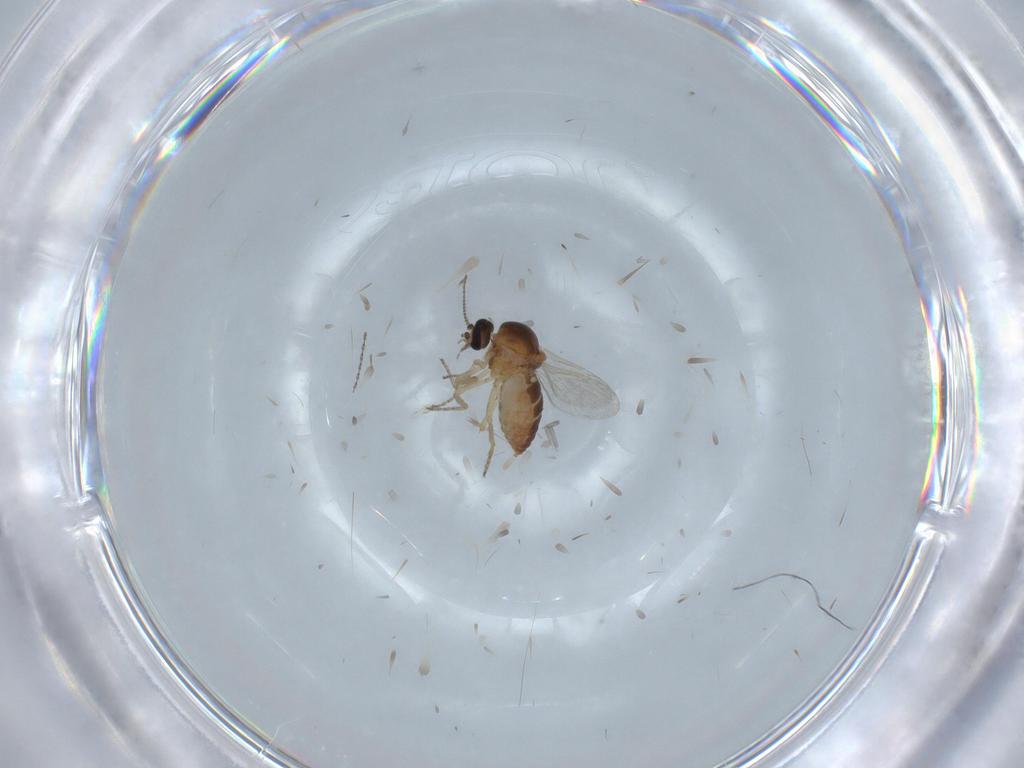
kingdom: Animalia
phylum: Arthropoda
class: Insecta
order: Diptera
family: Ceratopogonidae
